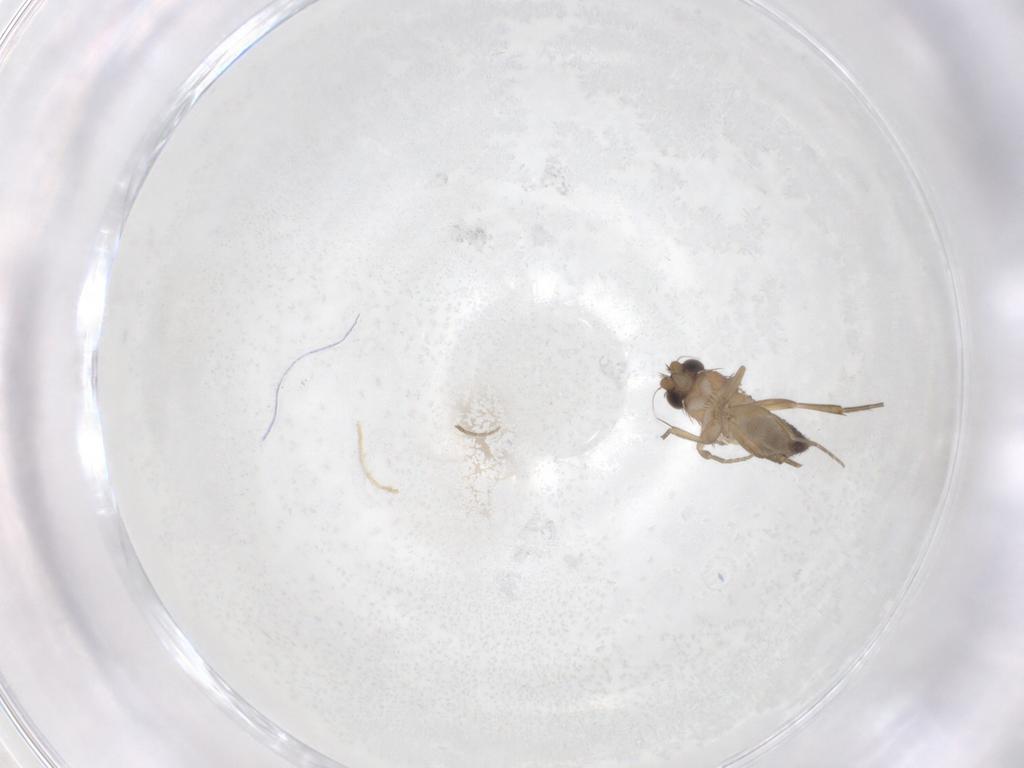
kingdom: Animalia
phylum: Arthropoda
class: Insecta
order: Diptera
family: Phoridae
